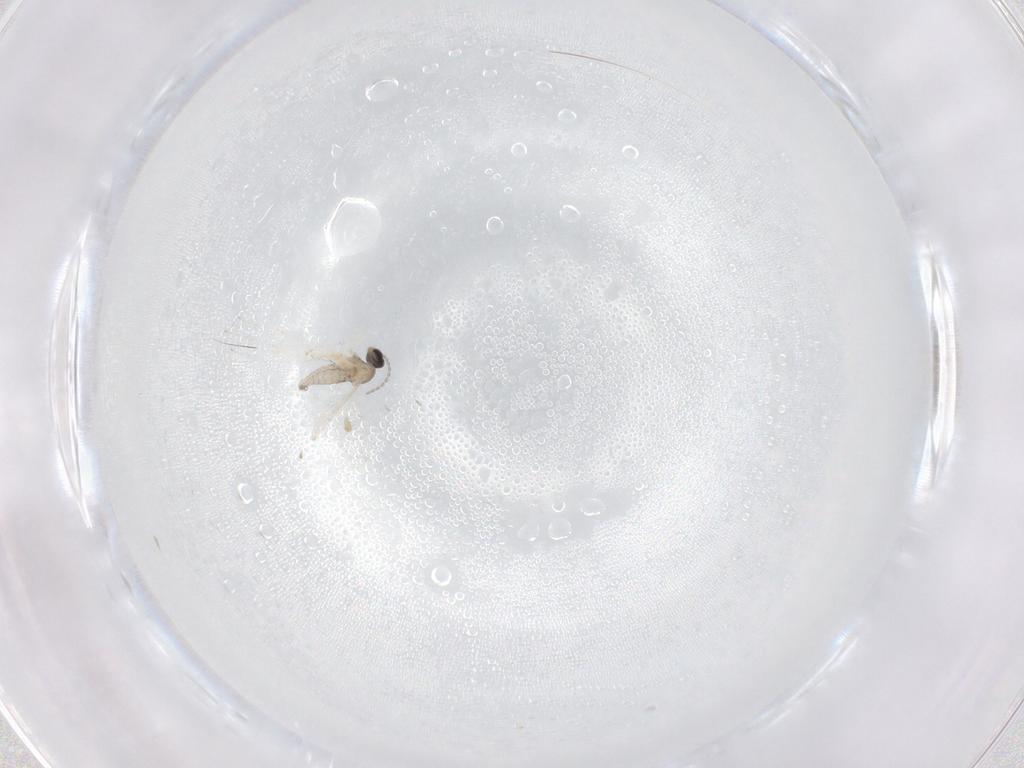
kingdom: Animalia
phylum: Arthropoda
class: Insecta
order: Diptera
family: Cecidomyiidae
